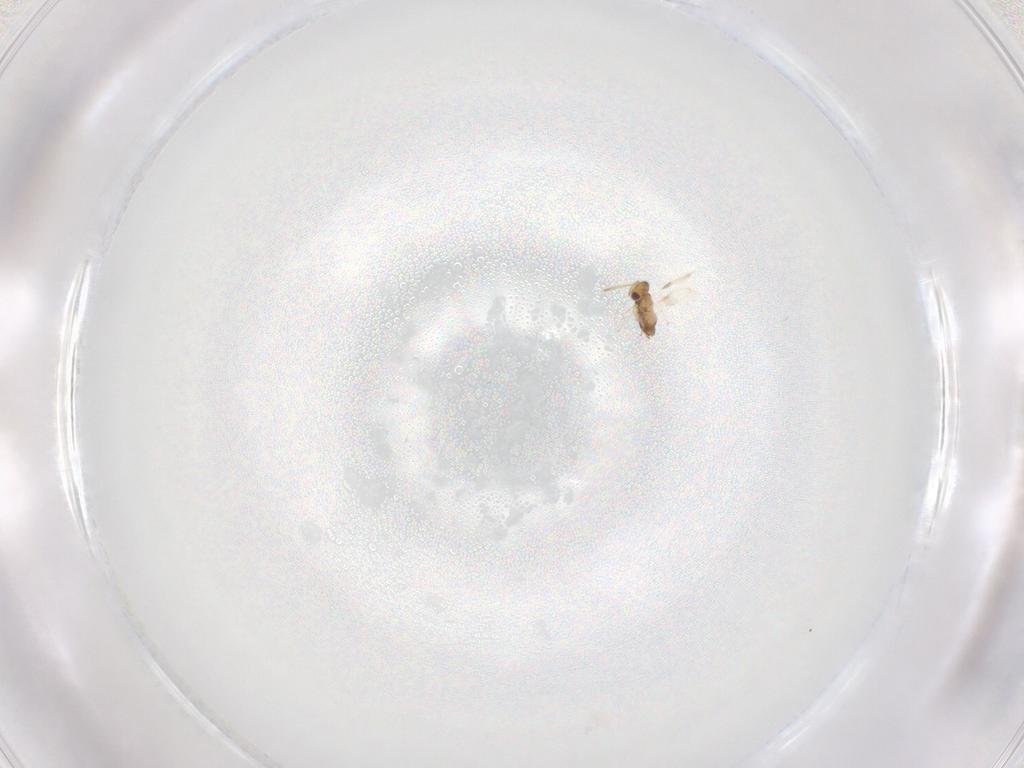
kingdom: Animalia
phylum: Arthropoda
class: Insecta
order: Hymenoptera
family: Aphelinidae
